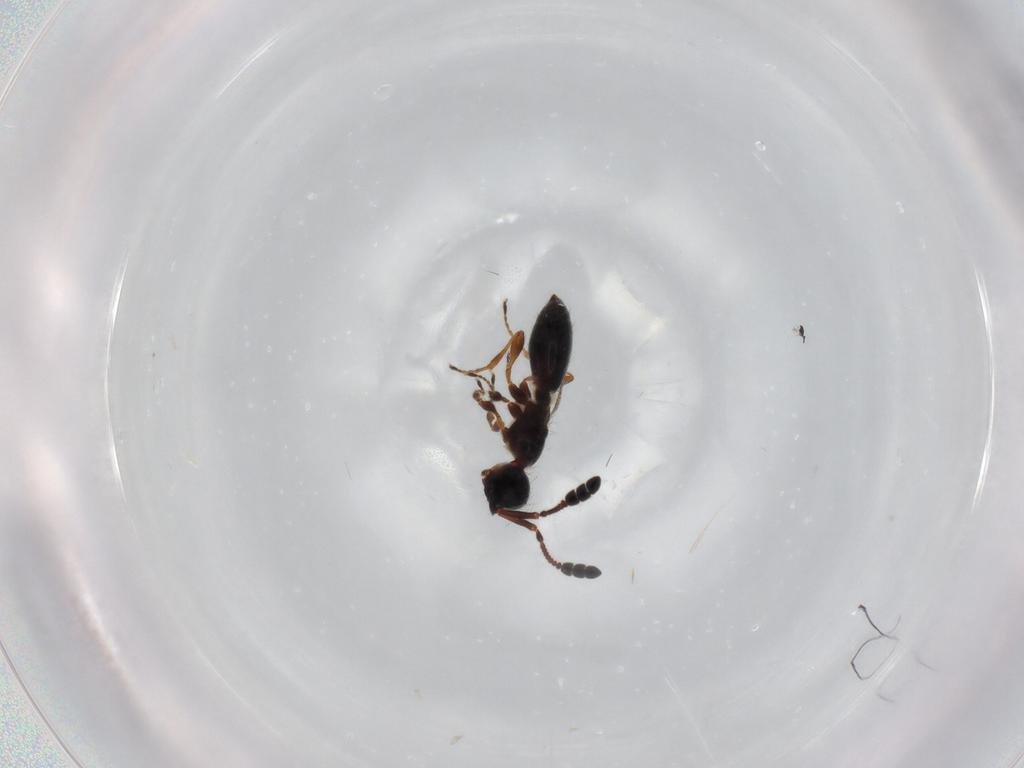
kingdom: Animalia
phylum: Arthropoda
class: Insecta
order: Hymenoptera
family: Diapriidae
